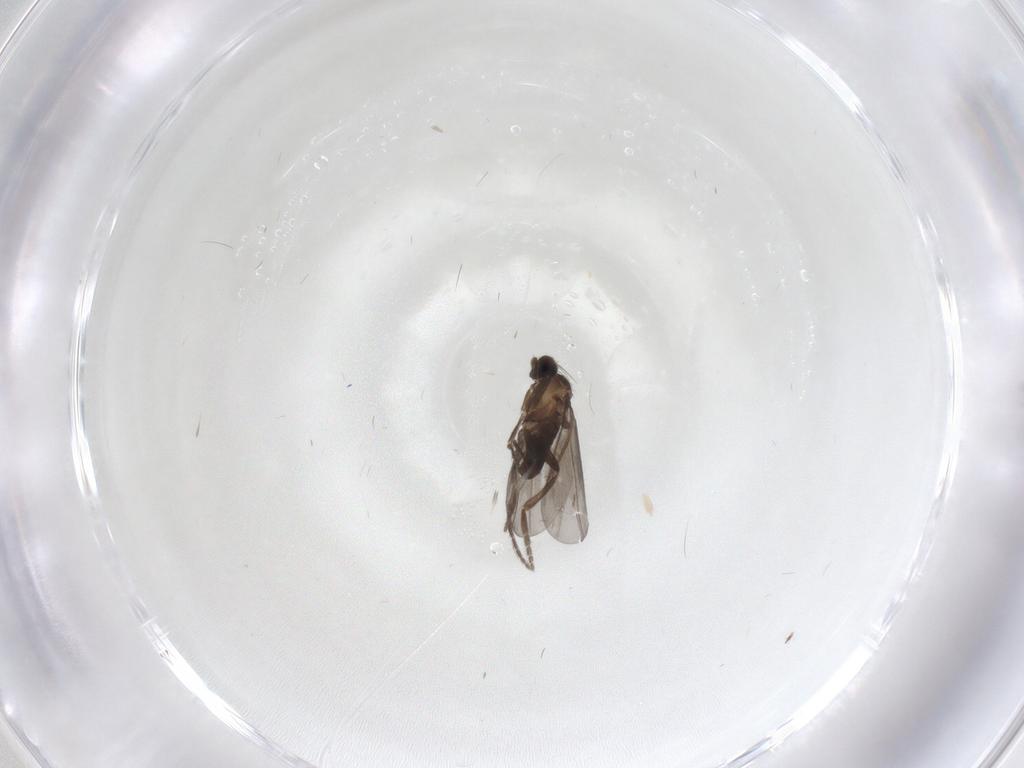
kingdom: Animalia
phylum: Arthropoda
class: Insecta
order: Diptera
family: Phoridae
